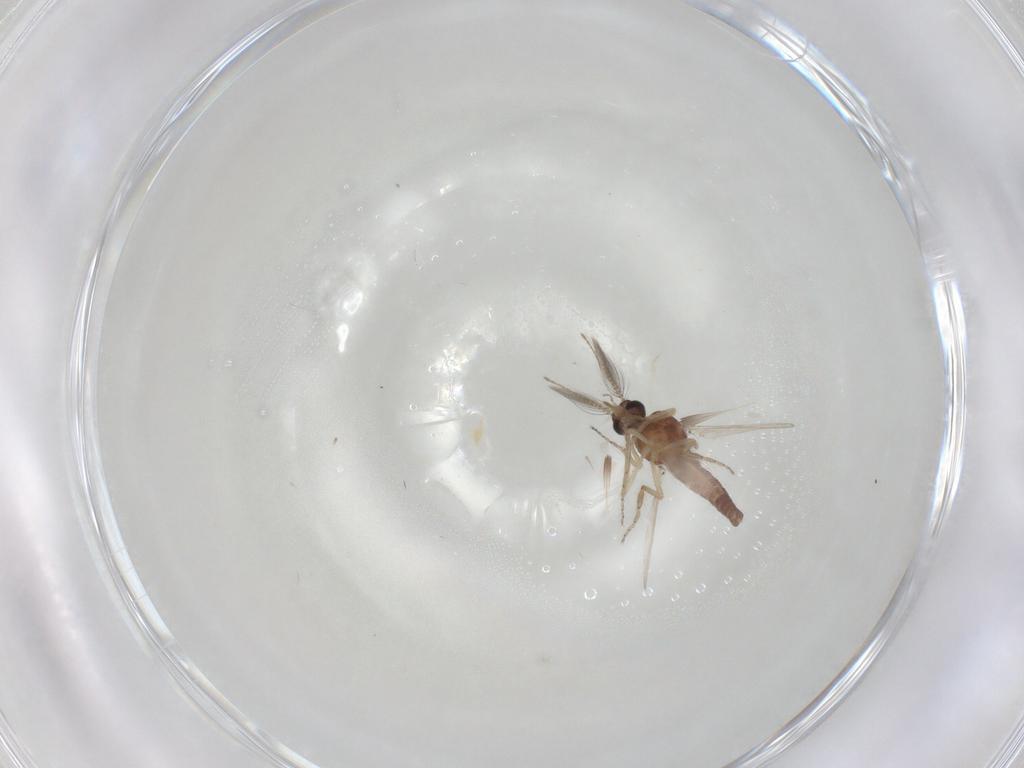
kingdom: Animalia
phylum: Arthropoda
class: Insecta
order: Diptera
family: Ceratopogonidae
